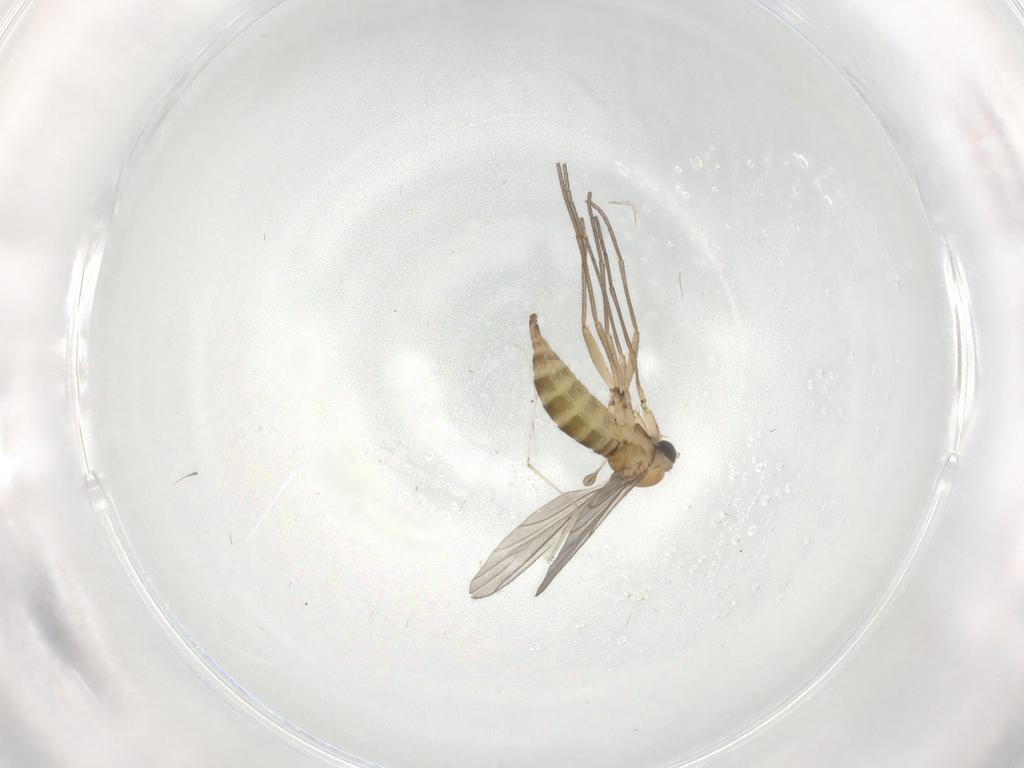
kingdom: Animalia
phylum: Arthropoda
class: Insecta
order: Diptera
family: Sciaridae
